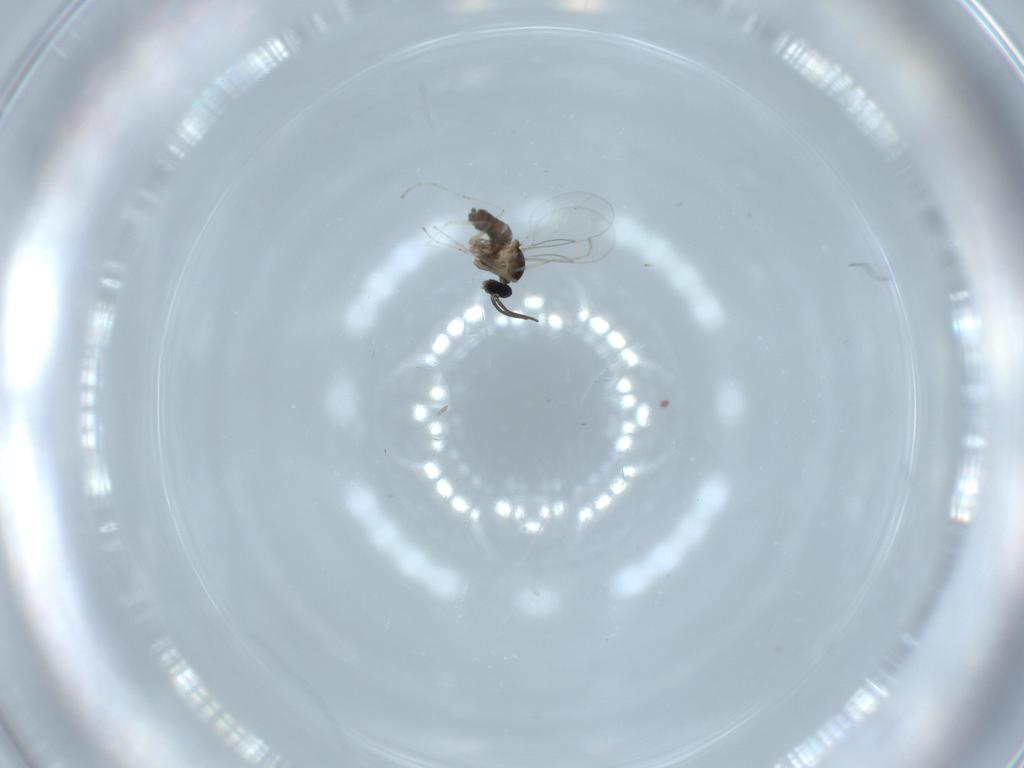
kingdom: Animalia
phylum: Arthropoda
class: Insecta
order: Diptera
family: Cecidomyiidae
